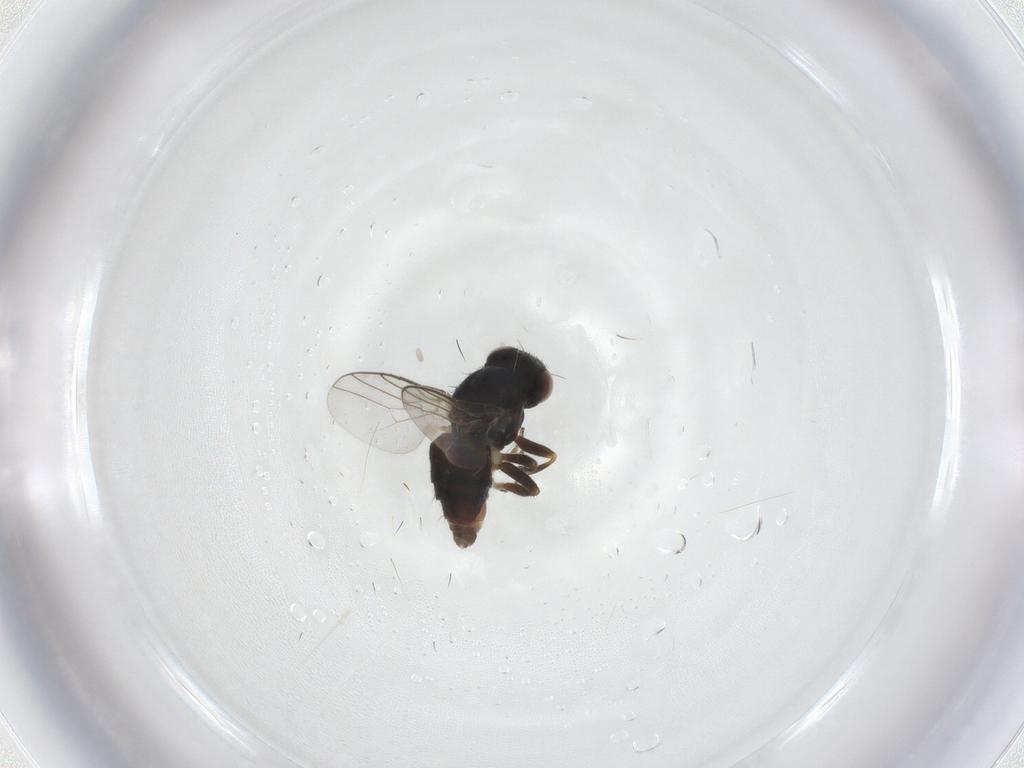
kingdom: Animalia
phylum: Arthropoda
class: Insecta
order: Diptera
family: Chloropidae
